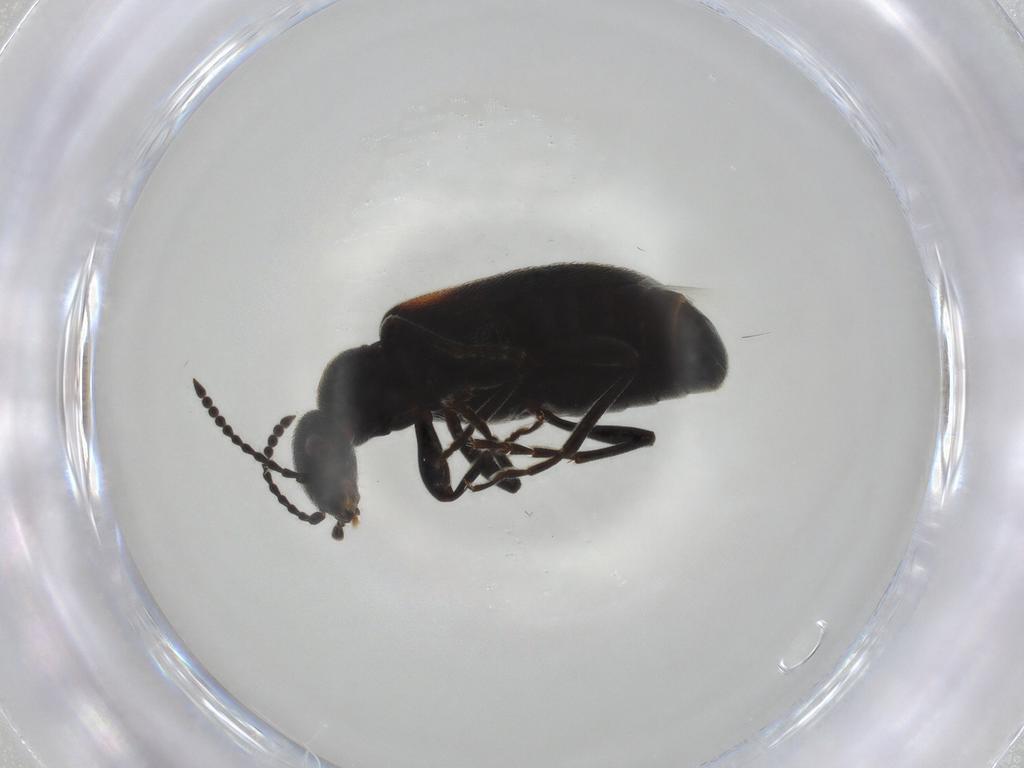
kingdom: Animalia
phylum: Arthropoda
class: Insecta
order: Coleoptera
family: Anthicidae
